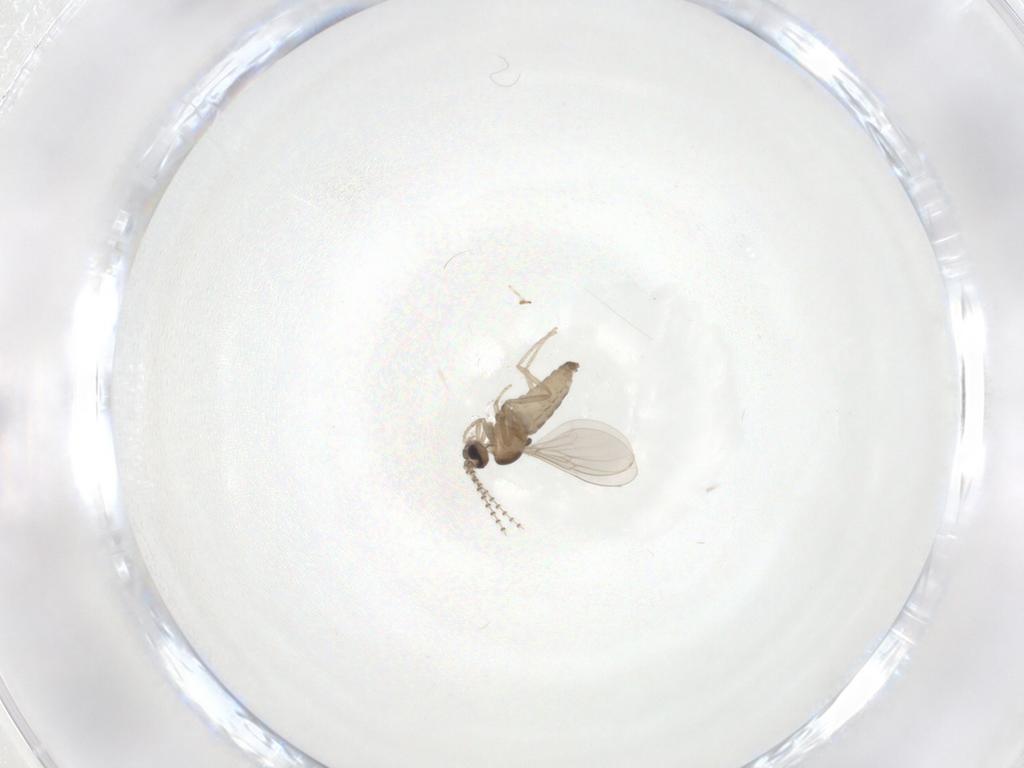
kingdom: Animalia
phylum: Arthropoda
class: Insecta
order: Diptera
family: Cecidomyiidae
